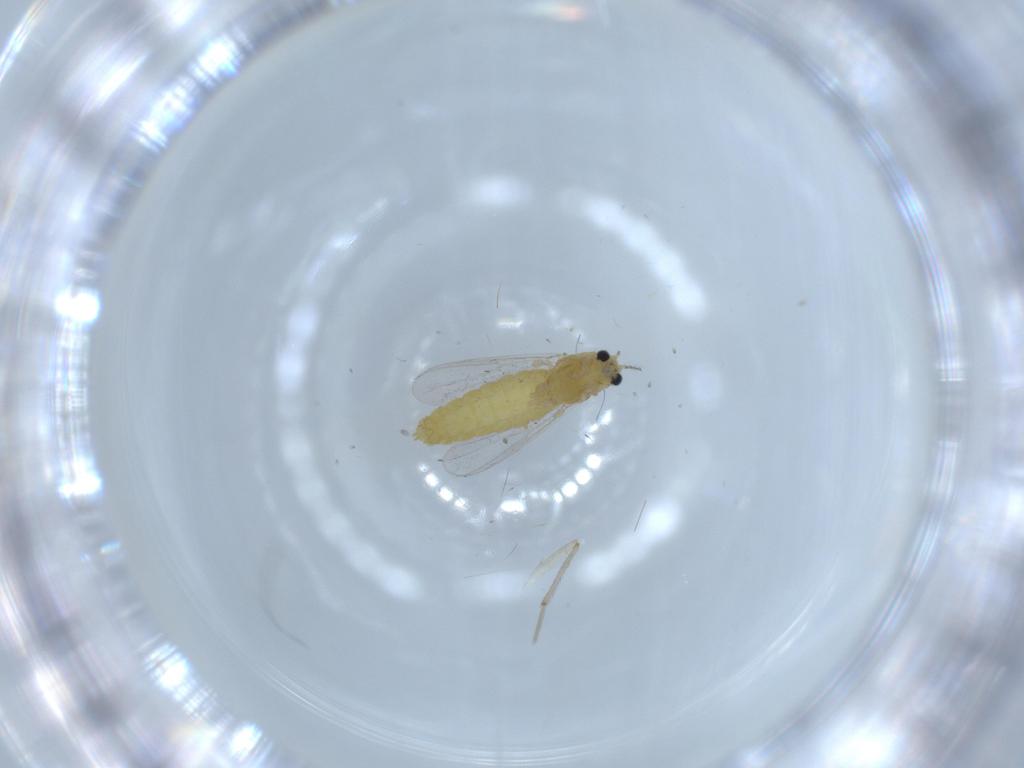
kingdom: Animalia
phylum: Arthropoda
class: Insecta
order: Diptera
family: Chironomidae
